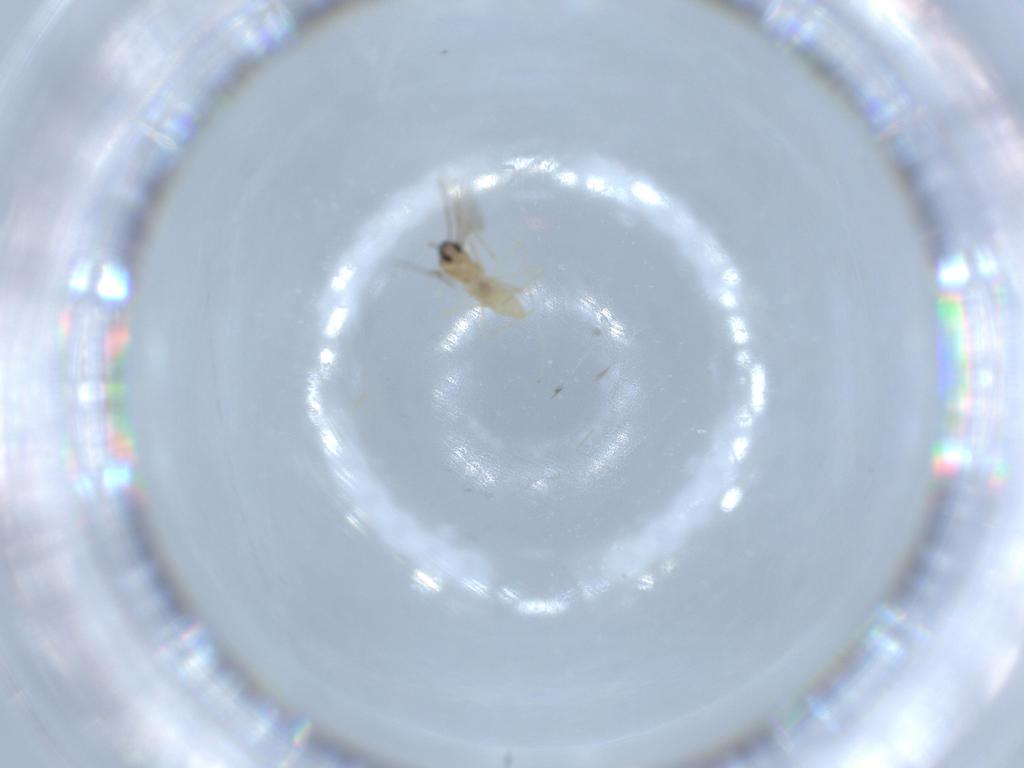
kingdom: Animalia
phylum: Arthropoda
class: Insecta
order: Diptera
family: Cecidomyiidae
